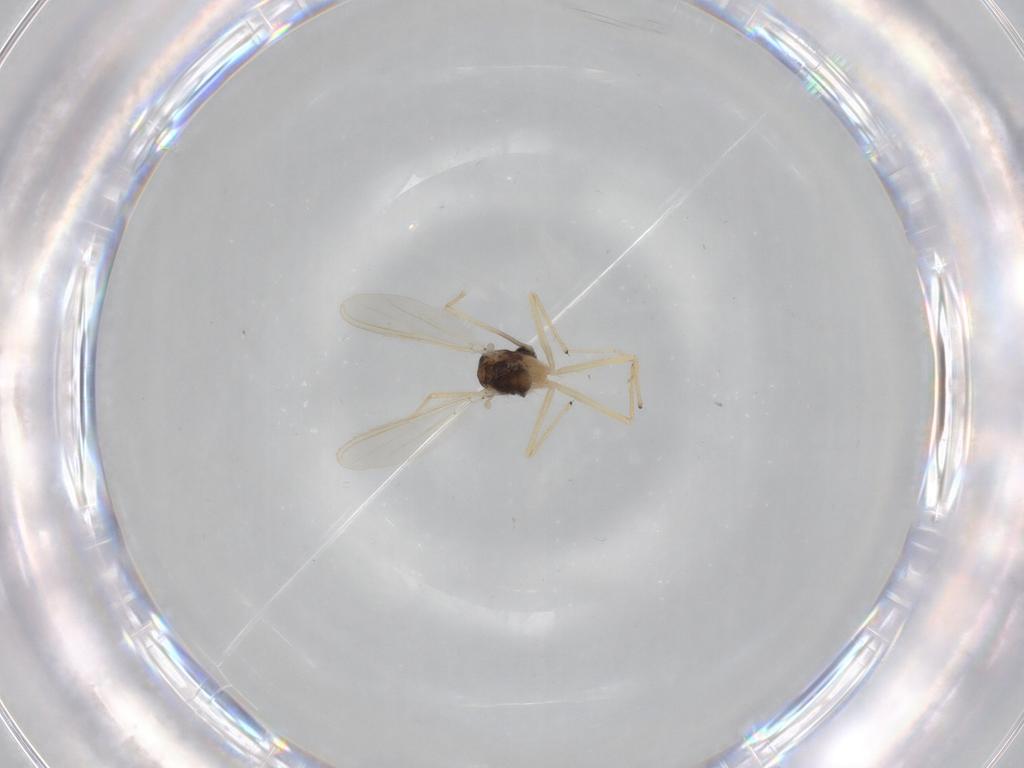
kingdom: Animalia
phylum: Arthropoda
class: Insecta
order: Diptera
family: Chironomidae
